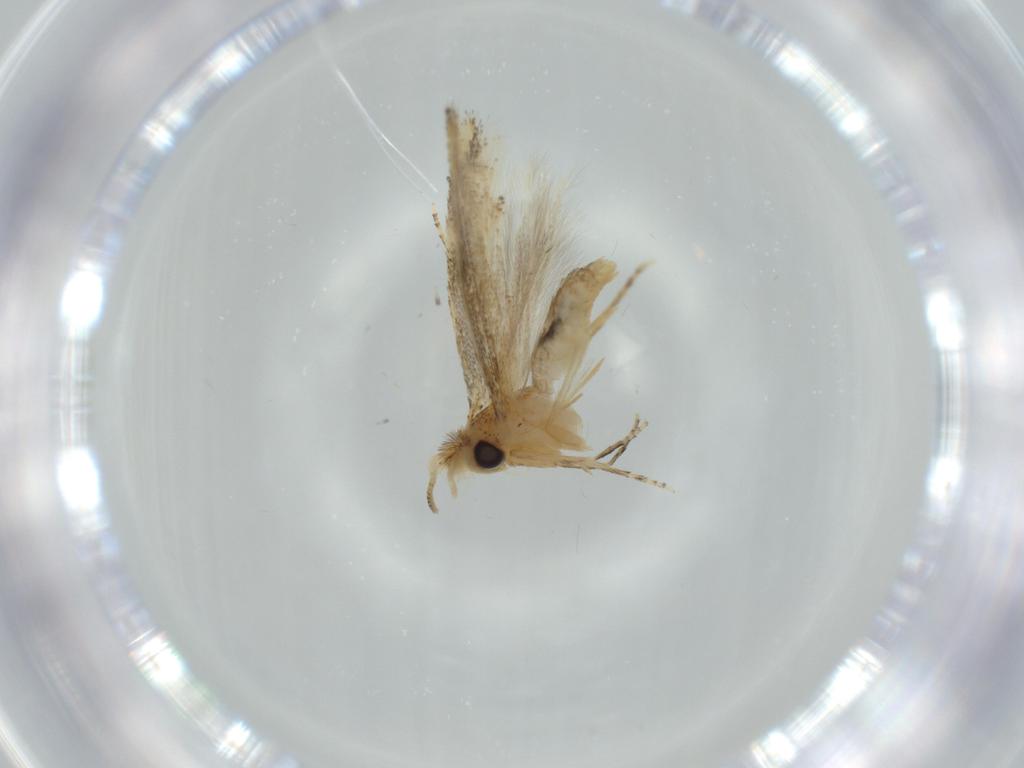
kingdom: Animalia
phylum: Arthropoda
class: Insecta
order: Lepidoptera
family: Bucculatricidae
